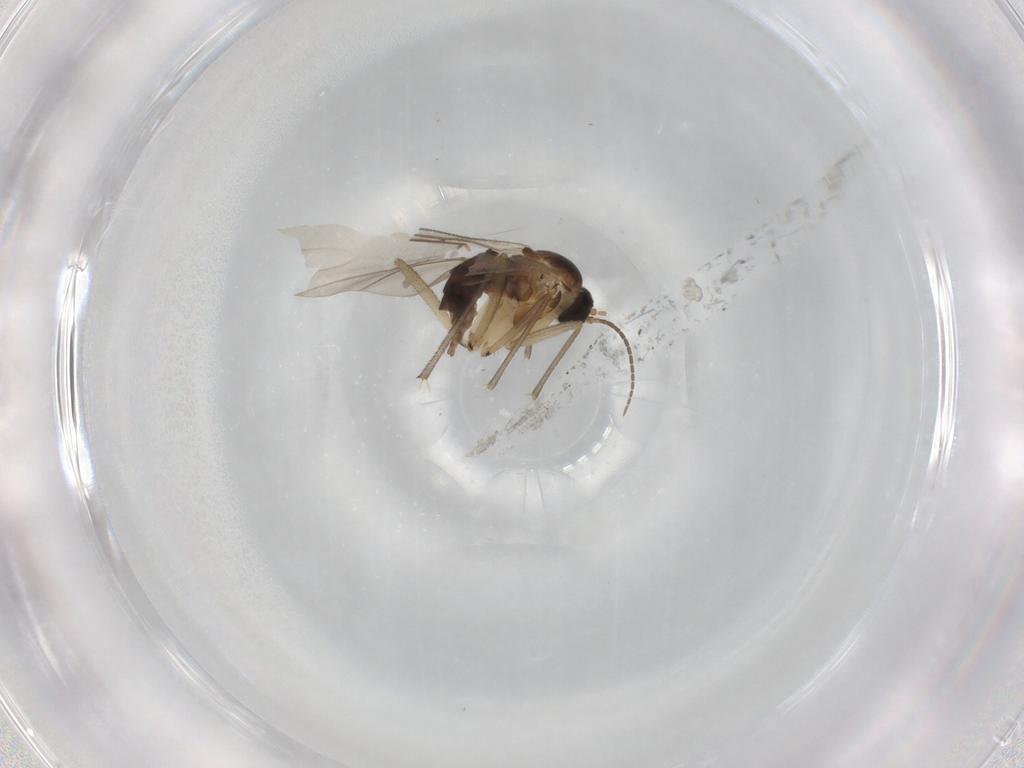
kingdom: Animalia
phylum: Arthropoda
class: Insecta
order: Diptera
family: Sciaridae
